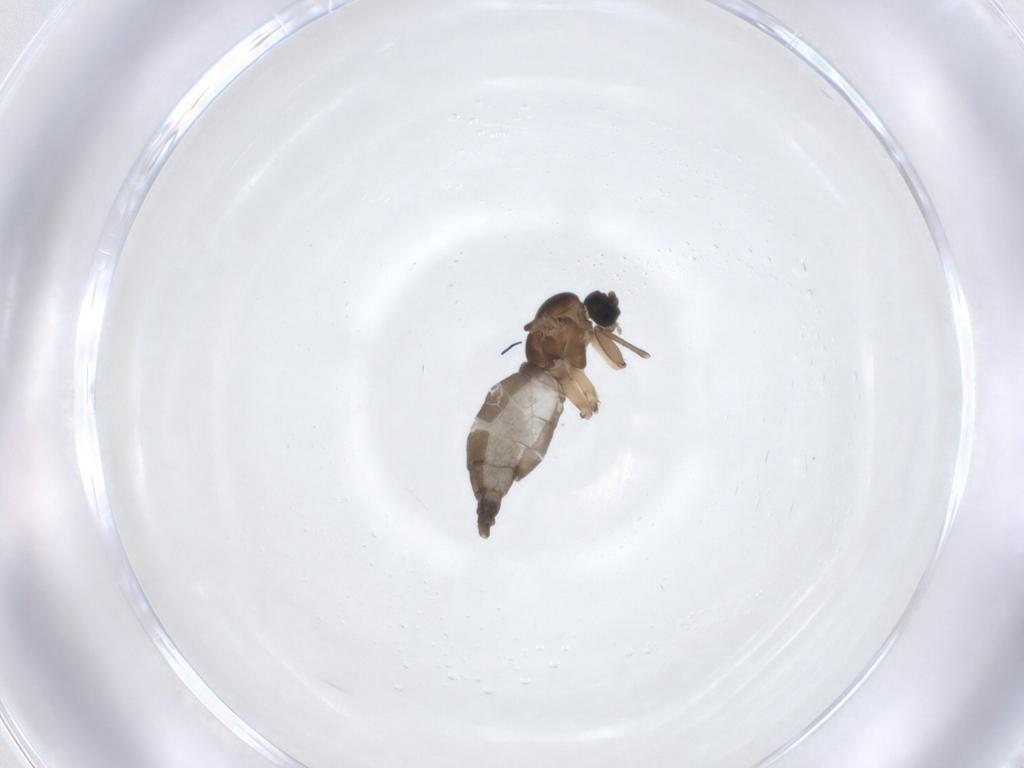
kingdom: Animalia
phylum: Arthropoda
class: Insecta
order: Diptera
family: Sciaridae
